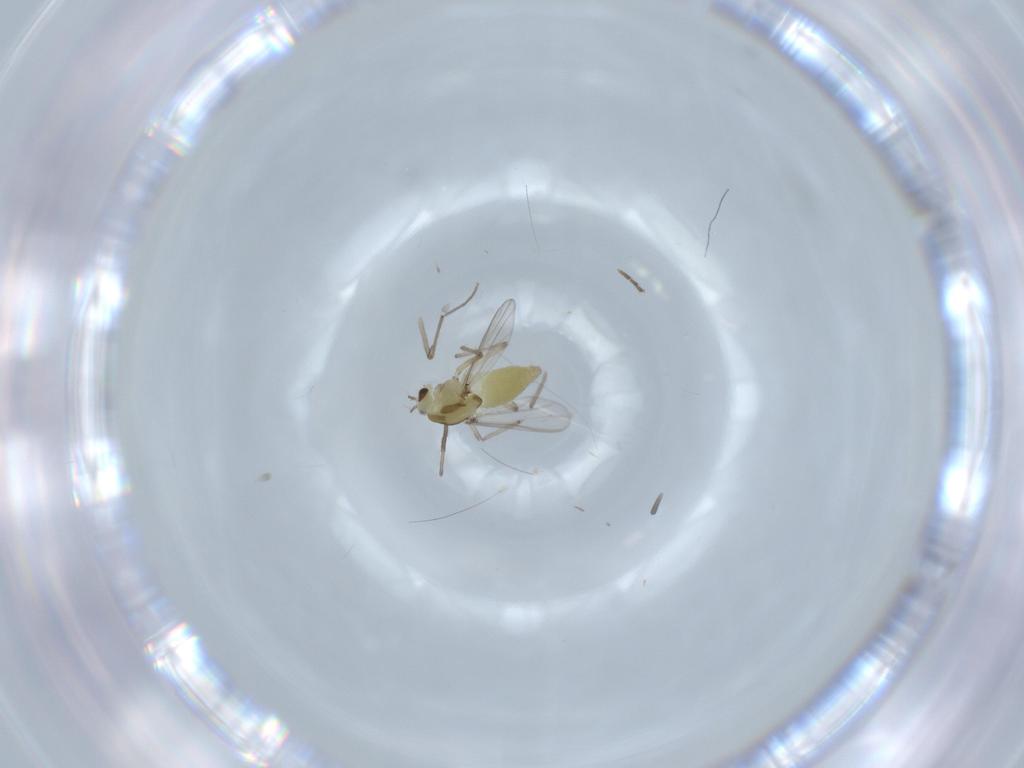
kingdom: Animalia
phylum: Arthropoda
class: Insecta
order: Diptera
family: Chironomidae
